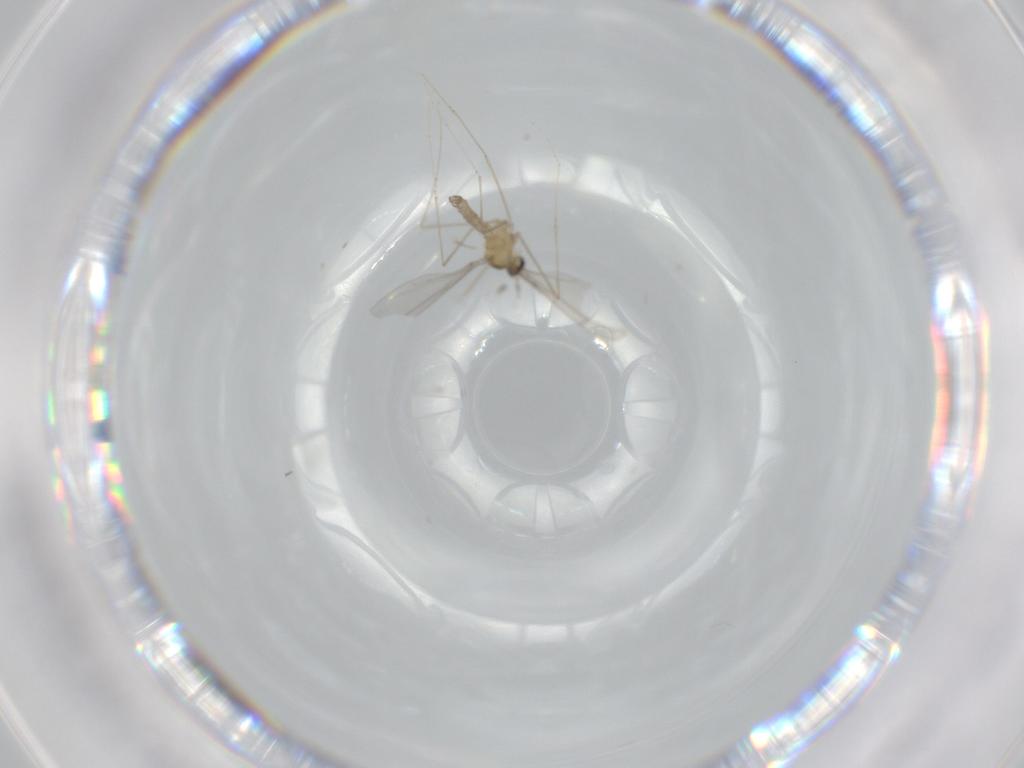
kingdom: Animalia
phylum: Arthropoda
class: Insecta
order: Diptera
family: Cecidomyiidae
